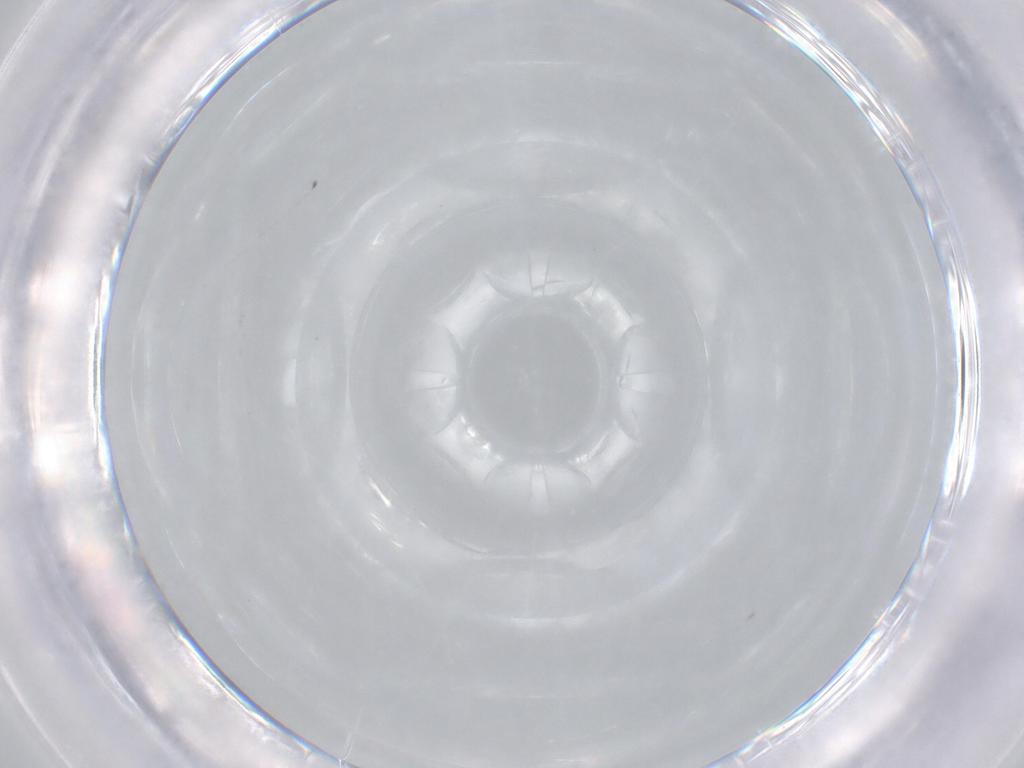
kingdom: Animalia
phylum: Arthropoda
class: Insecta
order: Diptera
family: Phoridae
